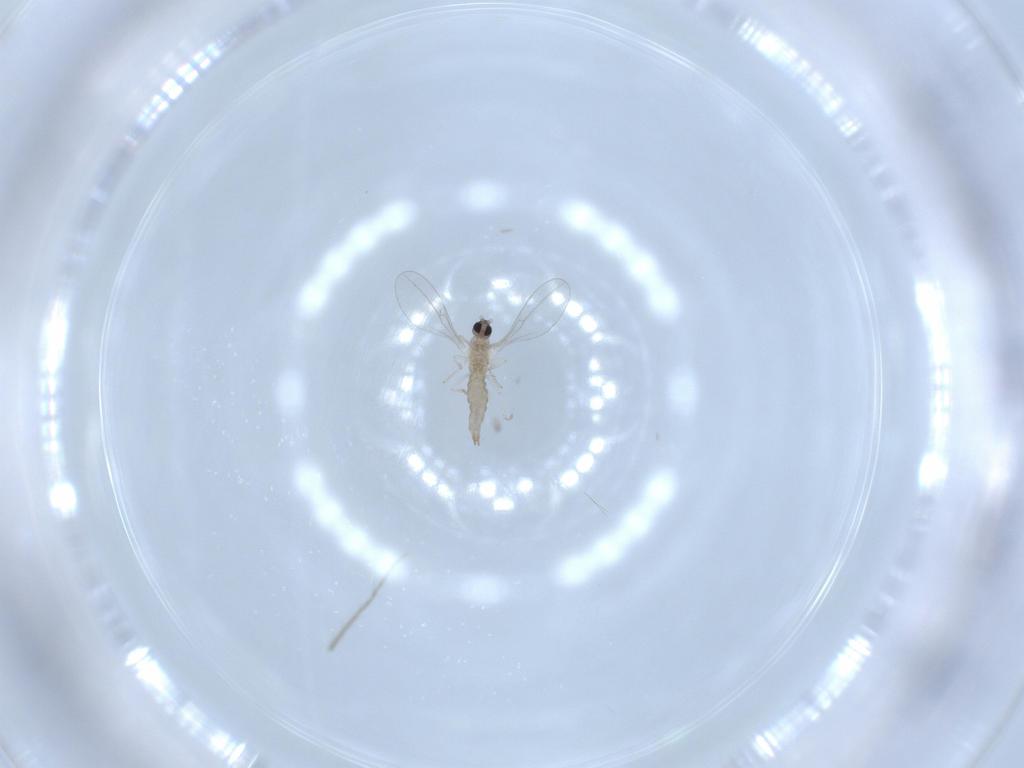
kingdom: Animalia
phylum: Arthropoda
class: Insecta
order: Diptera
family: Cecidomyiidae
